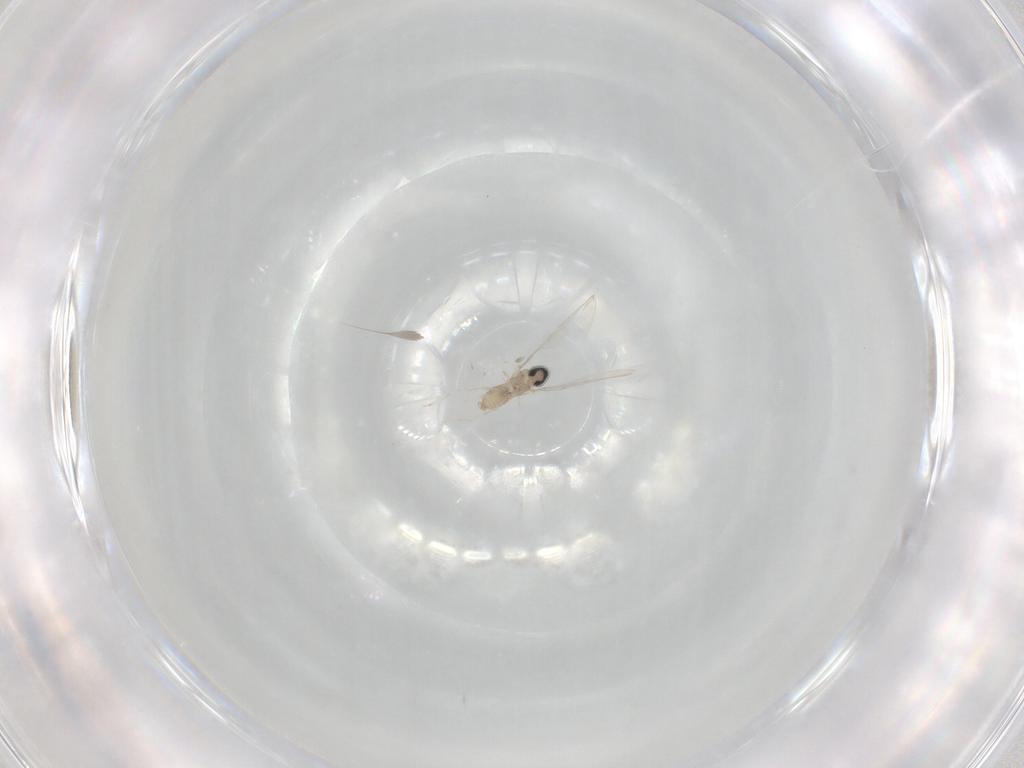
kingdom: Animalia
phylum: Arthropoda
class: Insecta
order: Diptera
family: Cecidomyiidae
